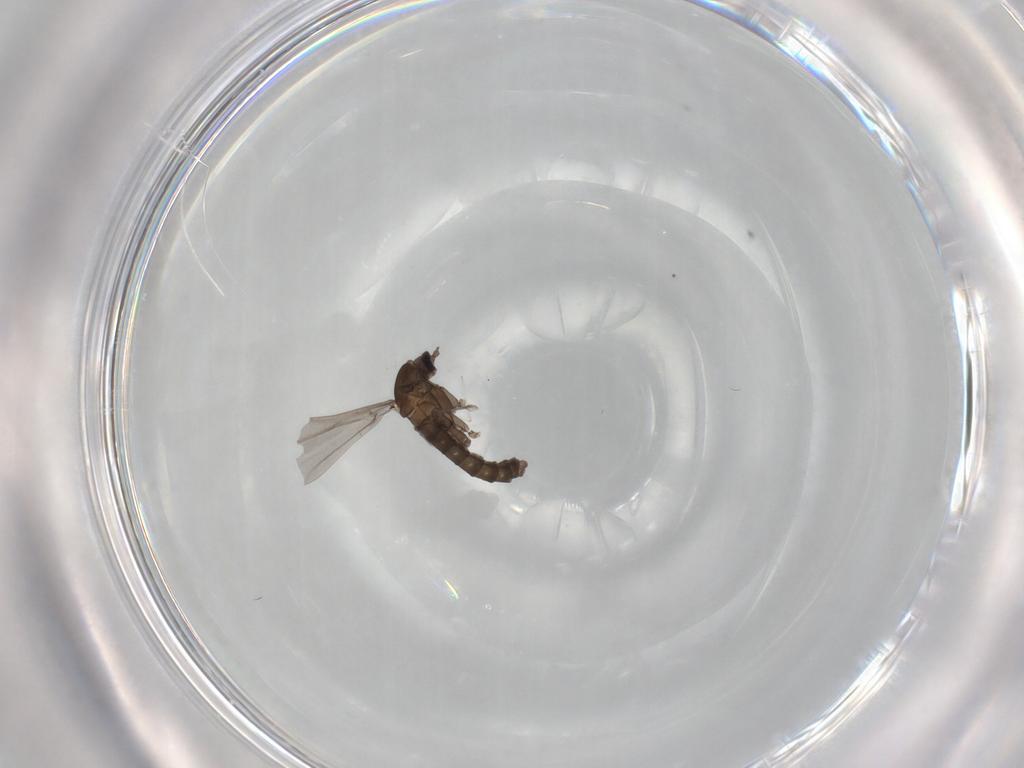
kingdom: Animalia
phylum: Arthropoda
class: Insecta
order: Diptera
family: Cecidomyiidae
